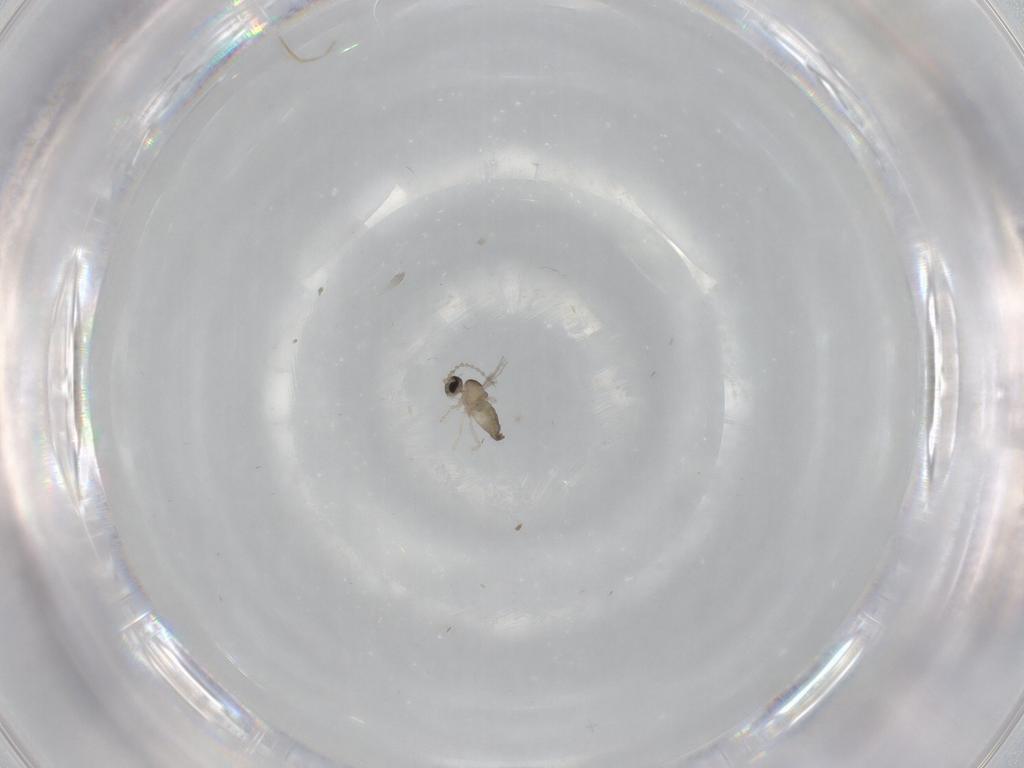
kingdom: Animalia
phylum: Arthropoda
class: Insecta
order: Diptera
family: Cecidomyiidae
